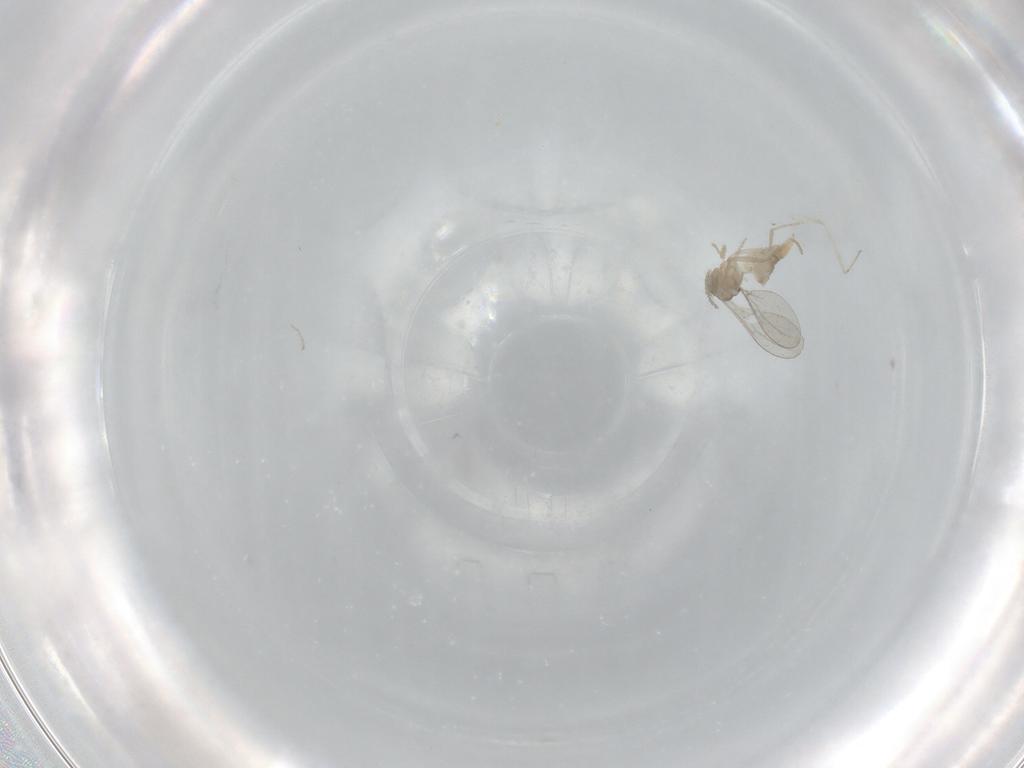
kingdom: Animalia
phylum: Arthropoda
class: Insecta
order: Diptera
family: Cecidomyiidae
